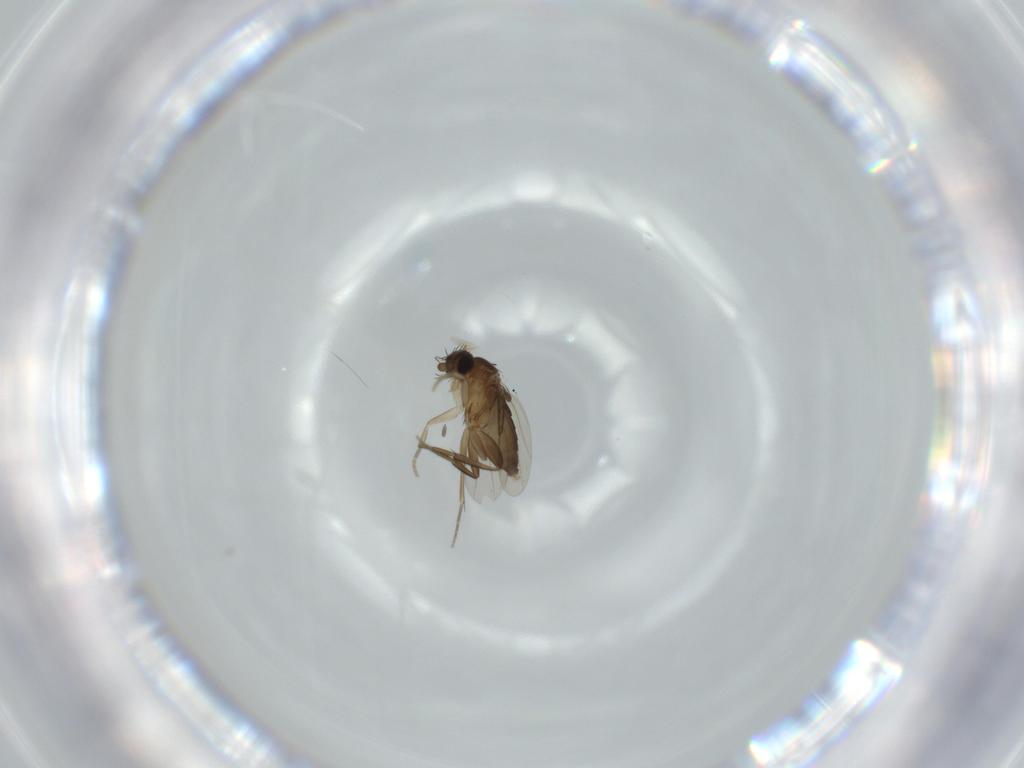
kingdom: Animalia
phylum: Arthropoda
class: Insecta
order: Diptera
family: Phoridae
